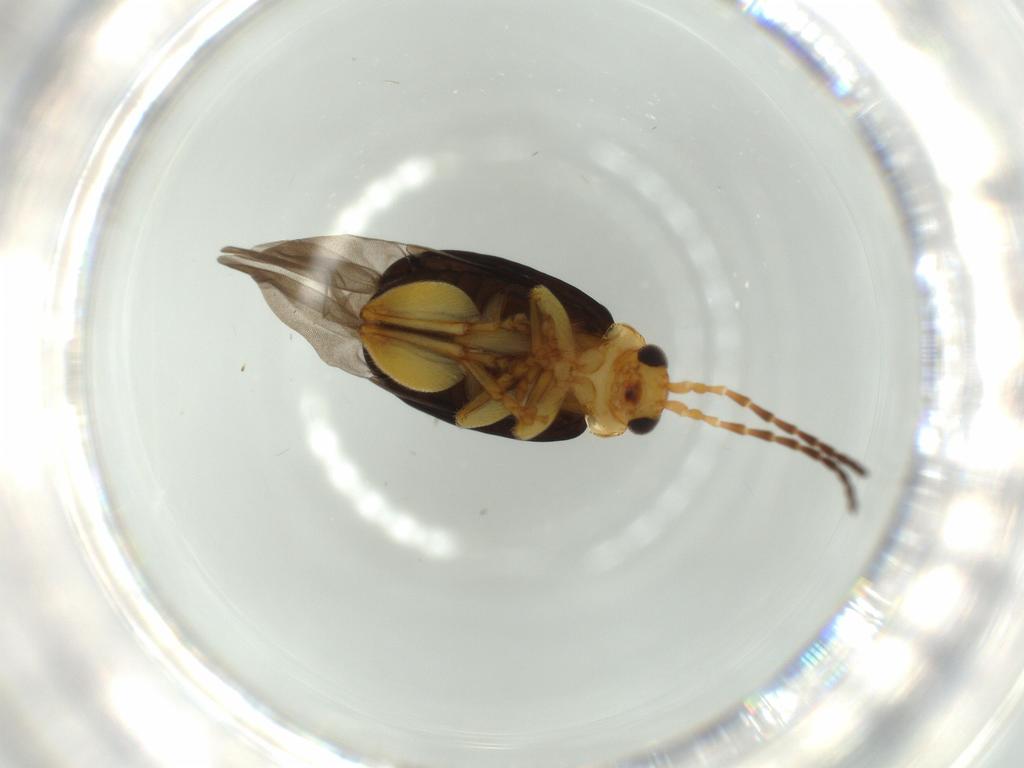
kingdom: Animalia
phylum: Arthropoda
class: Insecta
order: Coleoptera
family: Chrysomelidae
